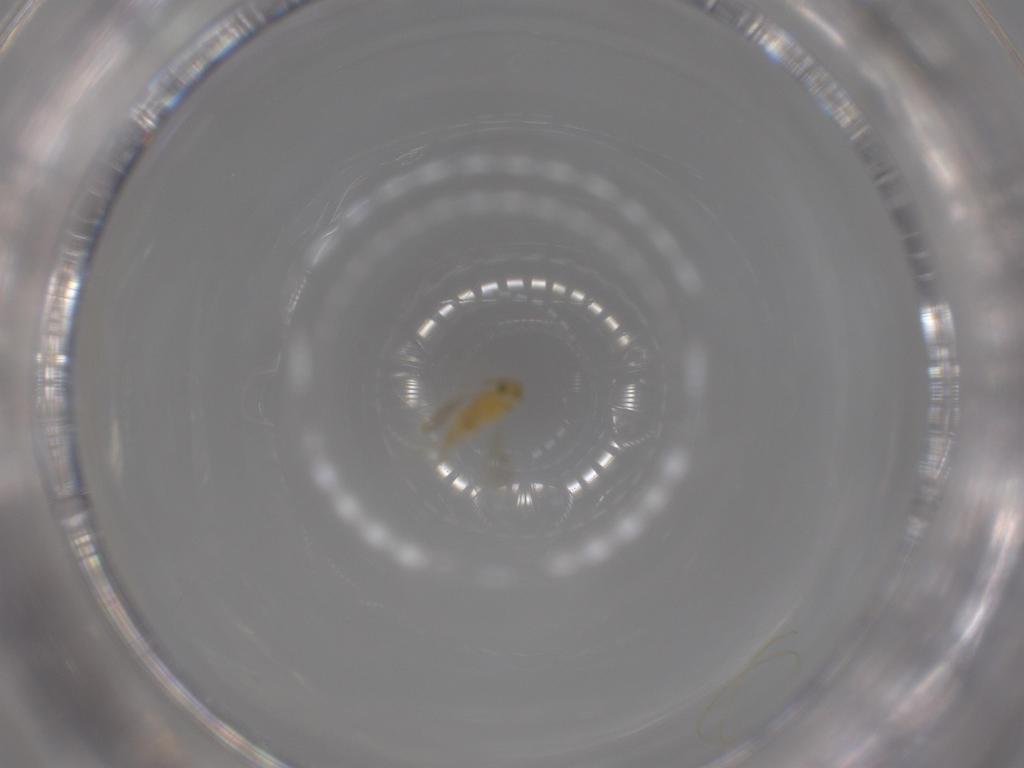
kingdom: Animalia
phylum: Arthropoda
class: Insecta
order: Hymenoptera
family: Aphelinidae
